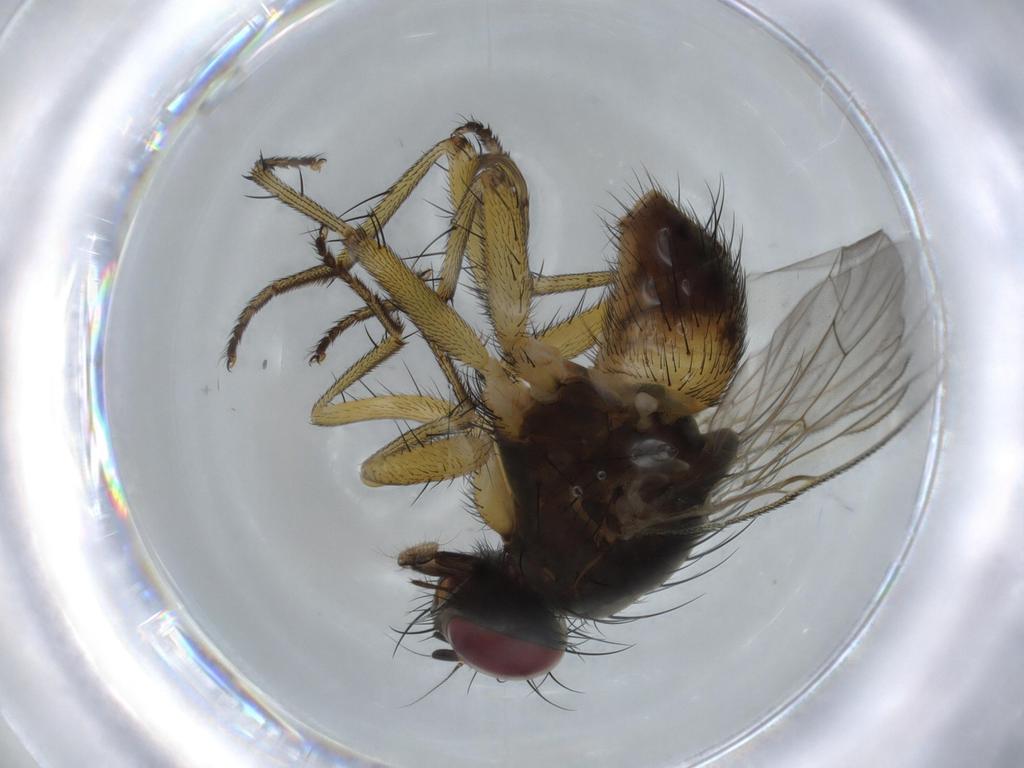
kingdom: Animalia
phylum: Arthropoda
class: Insecta
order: Diptera
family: Muscidae
